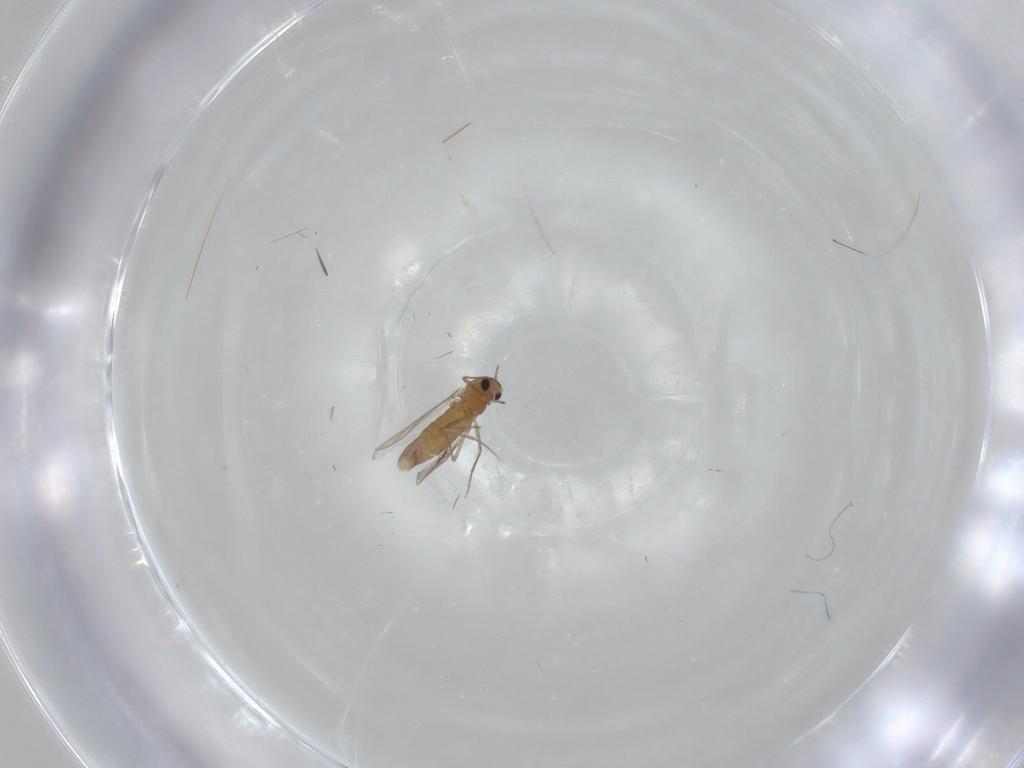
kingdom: Animalia
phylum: Arthropoda
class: Insecta
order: Diptera
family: Chironomidae
